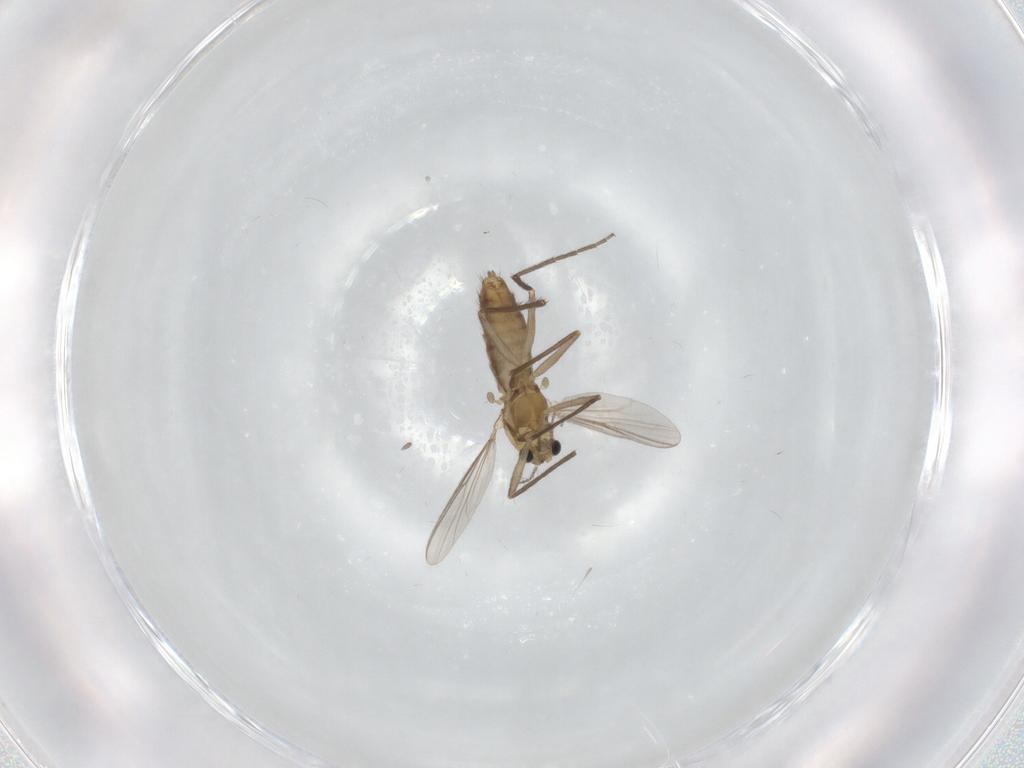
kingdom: Animalia
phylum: Arthropoda
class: Insecta
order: Diptera
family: Chironomidae
